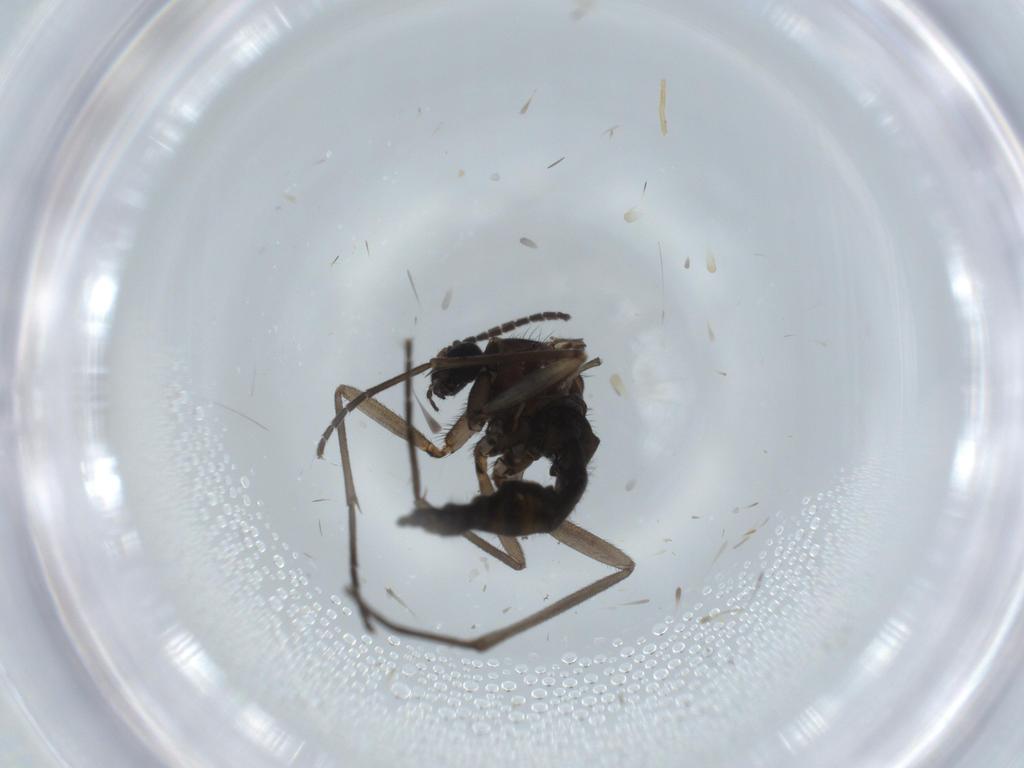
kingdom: Animalia
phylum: Arthropoda
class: Insecta
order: Diptera
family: Sciaridae
